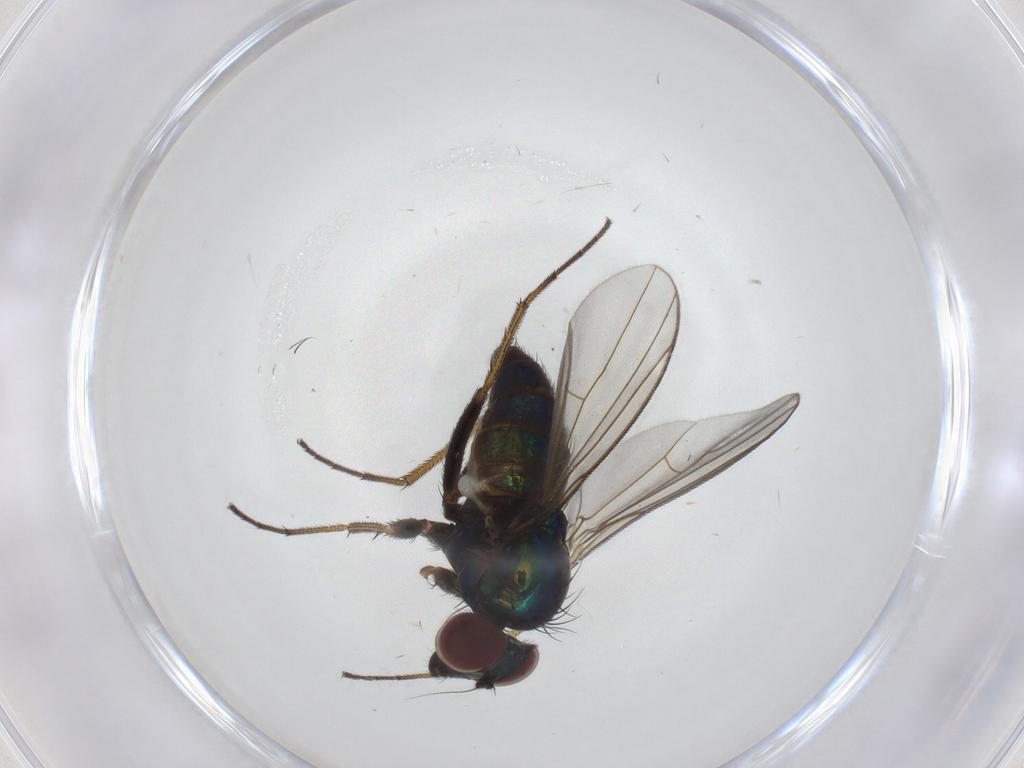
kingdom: Animalia
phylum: Arthropoda
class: Insecta
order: Diptera
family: Dolichopodidae
